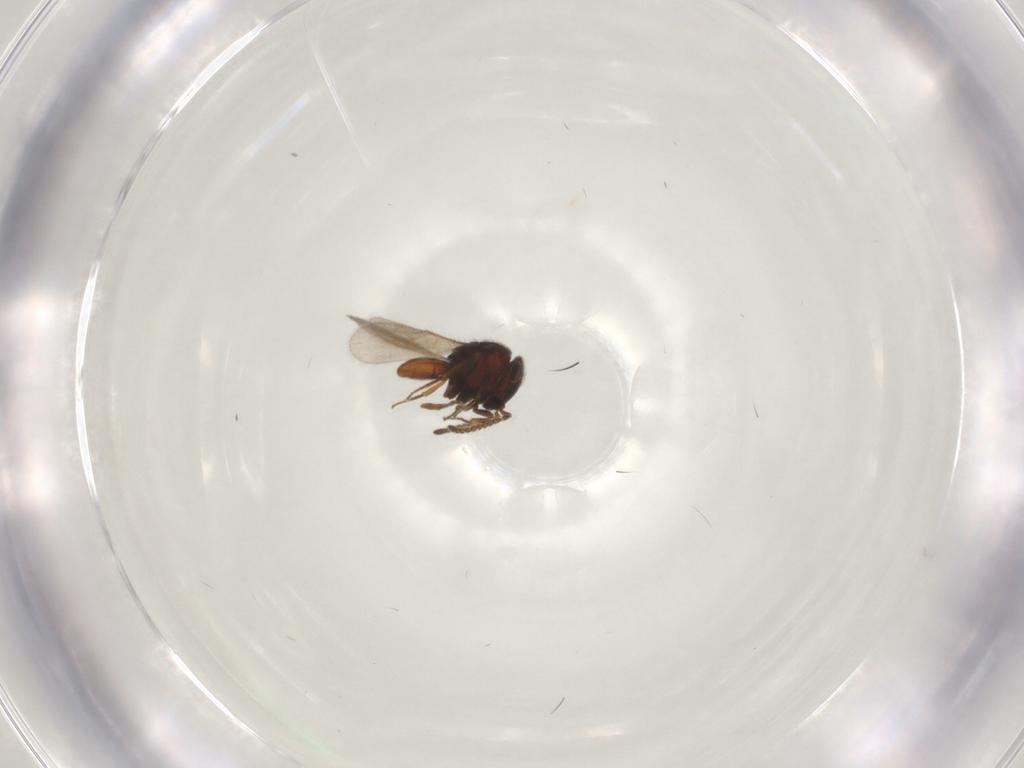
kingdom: Animalia
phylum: Arthropoda
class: Insecta
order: Hymenoptera
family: Scelionidae
